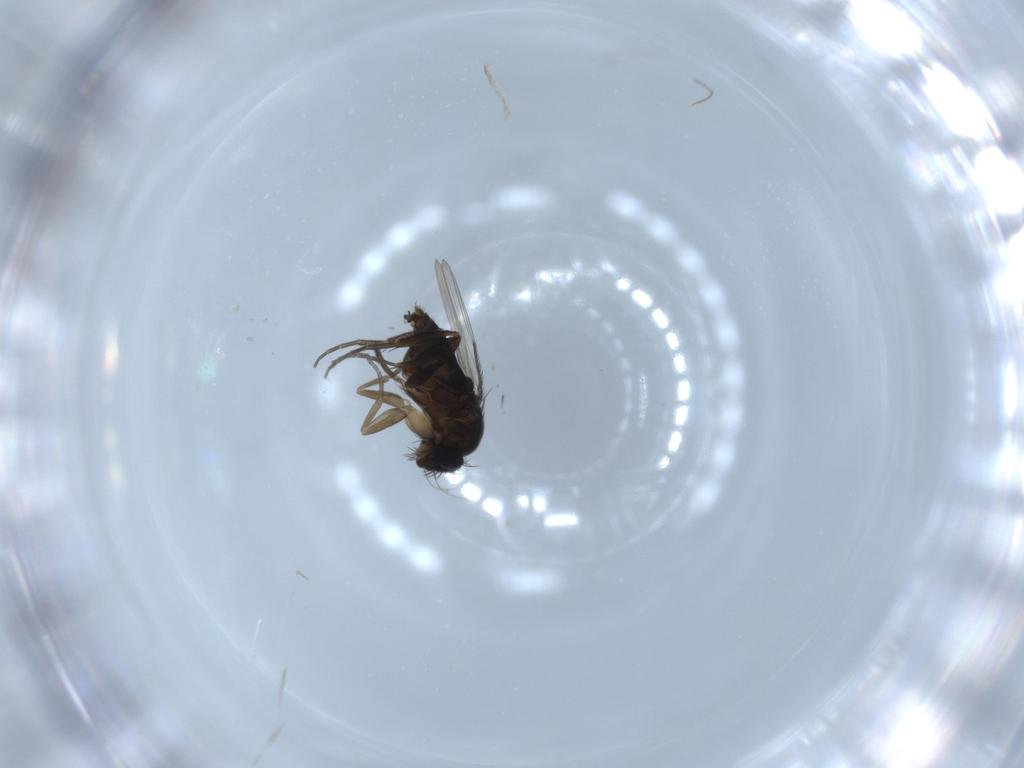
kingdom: Animalia
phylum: Arthropoda
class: Insecta
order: Diptera
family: Phoridae
